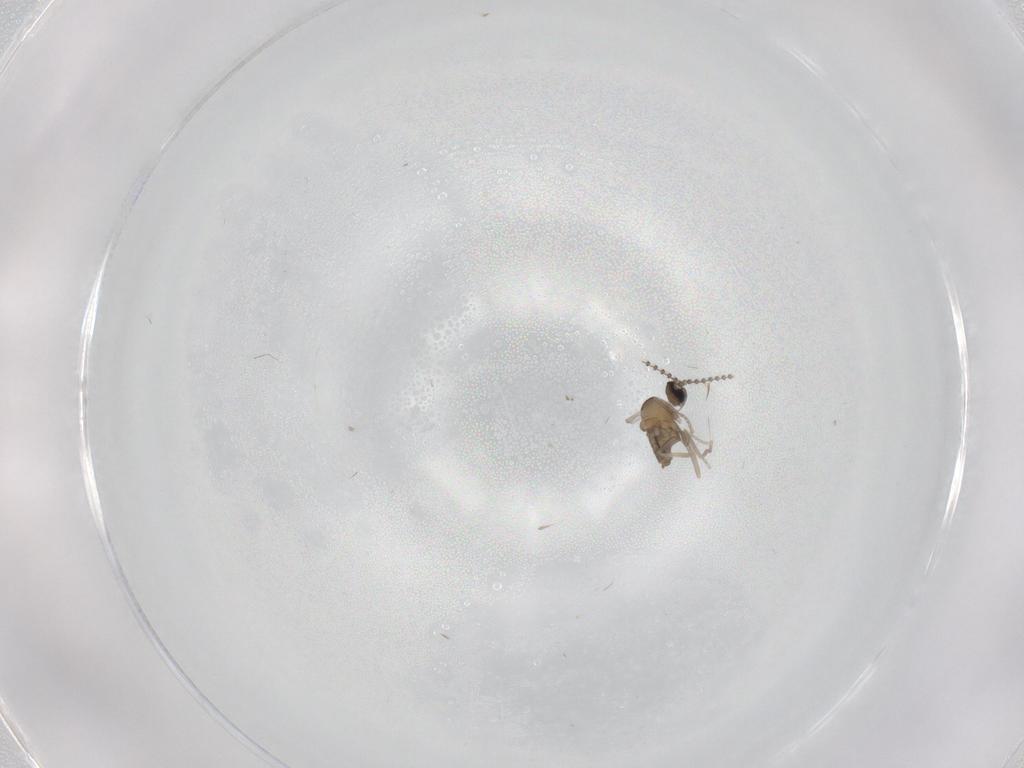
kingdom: Animalia
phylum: Arthropoda
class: Insecta
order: Diptera
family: Cecidomyiidae
